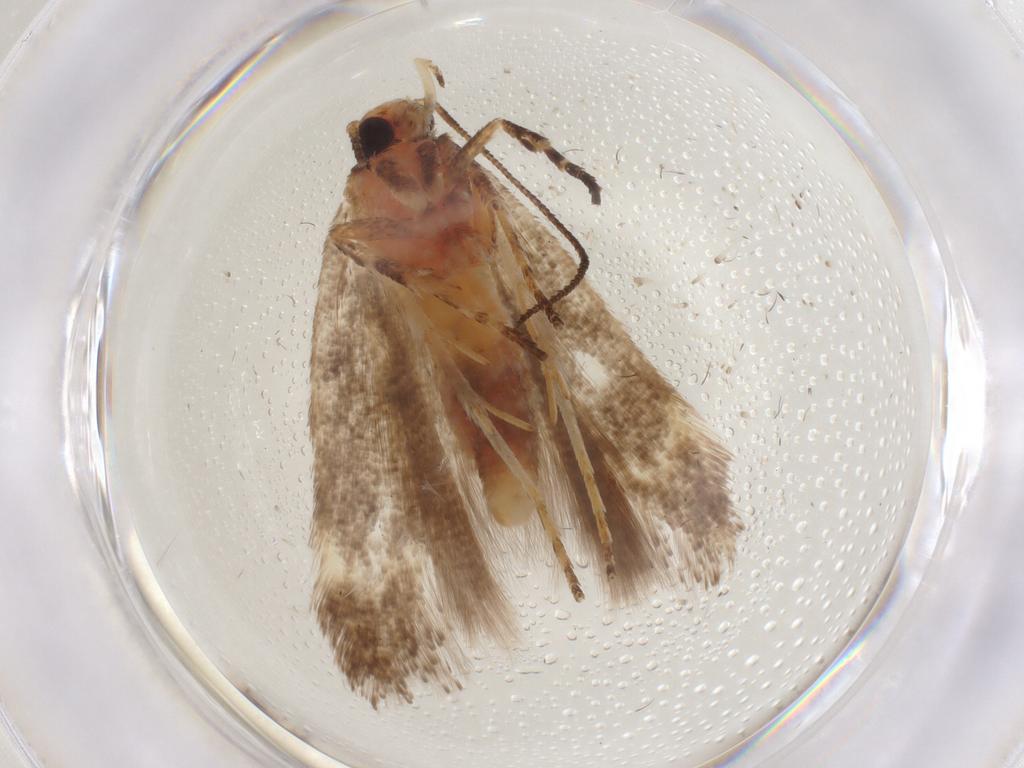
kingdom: Animalia
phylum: Arthropoda
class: Insecta
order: Lepidoptera
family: Gelechiidae
